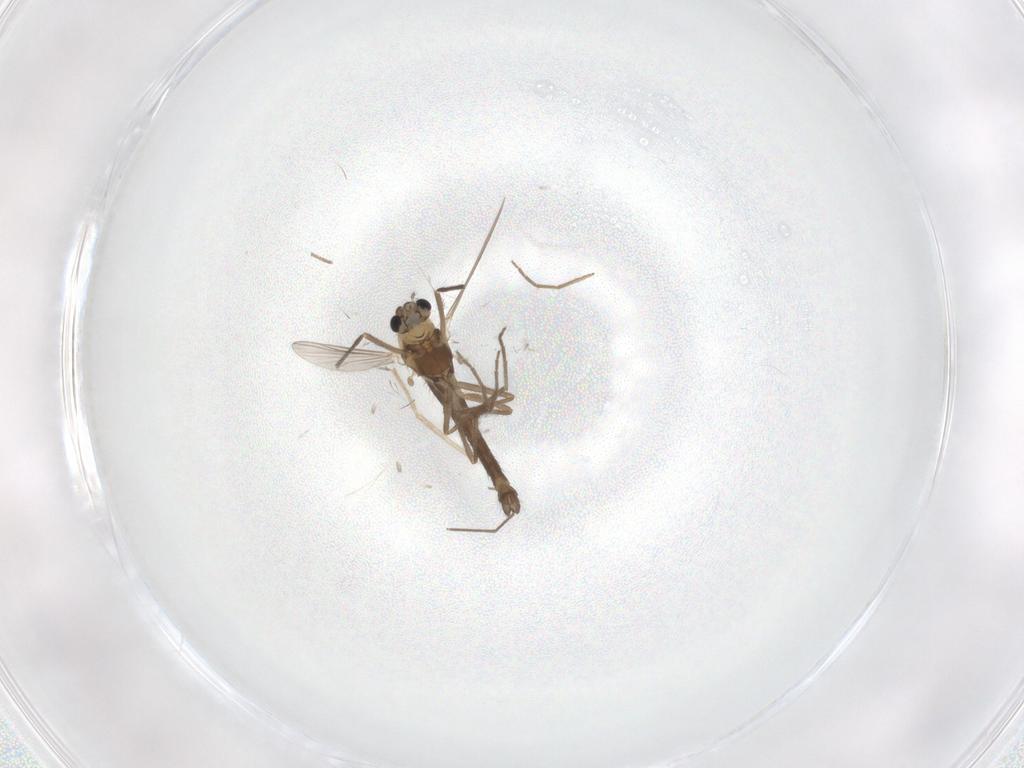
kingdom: Animalia
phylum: Arthropoda
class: Insecta
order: Diptera
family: Chironomidae
